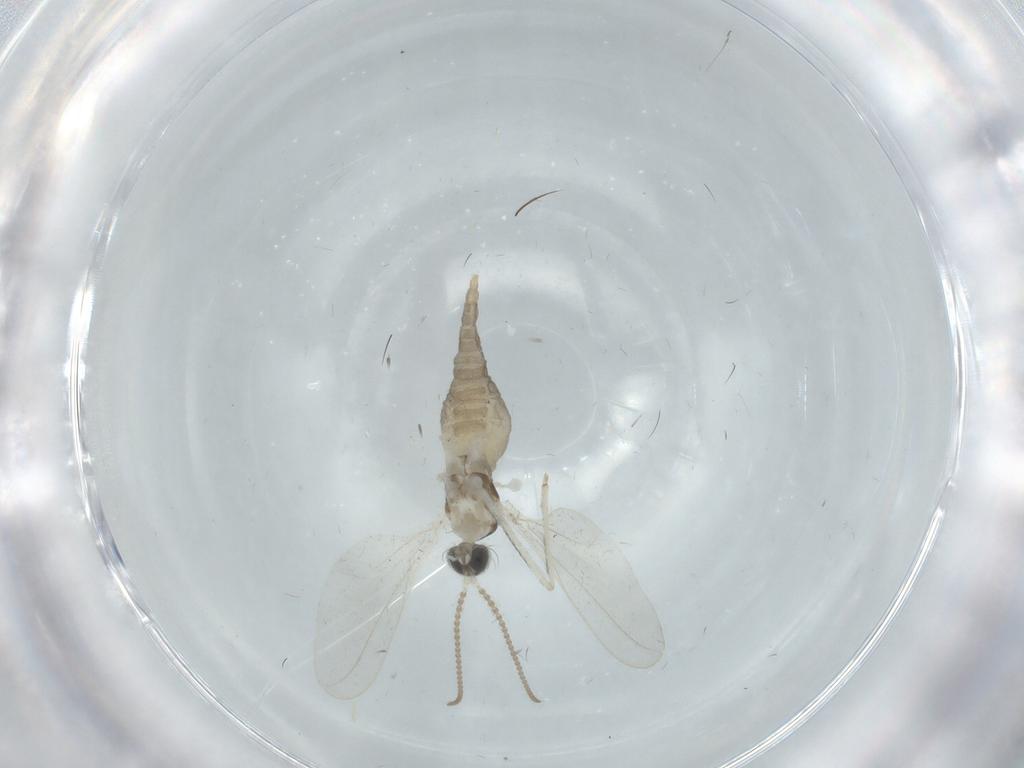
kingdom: Animalia
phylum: Arthropoda
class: Insecta
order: Diptera
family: Cecidomyiidae
